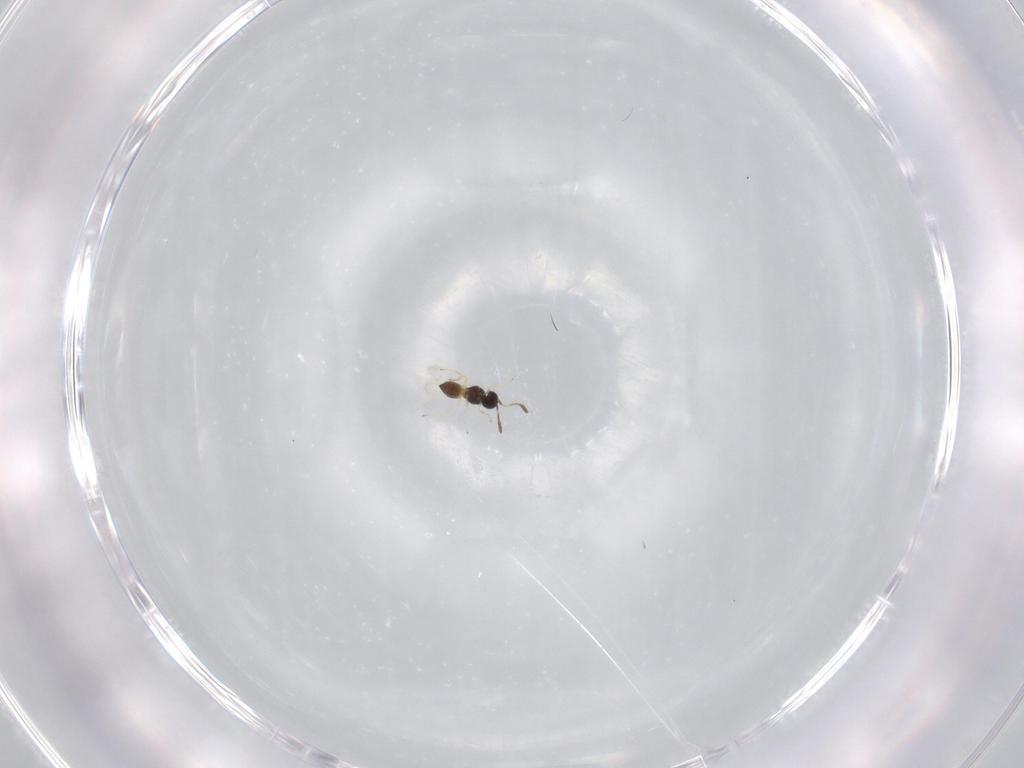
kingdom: Animalia
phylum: Arthropoda
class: Insecta
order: Hymenoptera
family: Scelionidae
